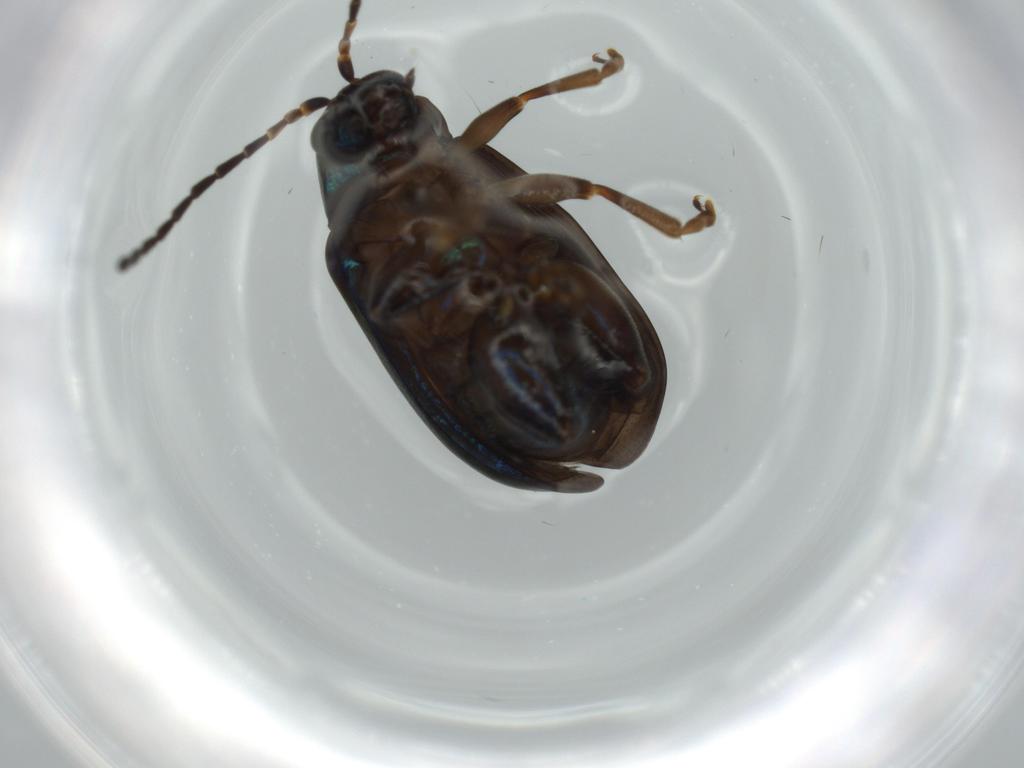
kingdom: Animalia
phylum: Arthropoda
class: Insecta
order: Coleoptera
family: Chrysomelidae
